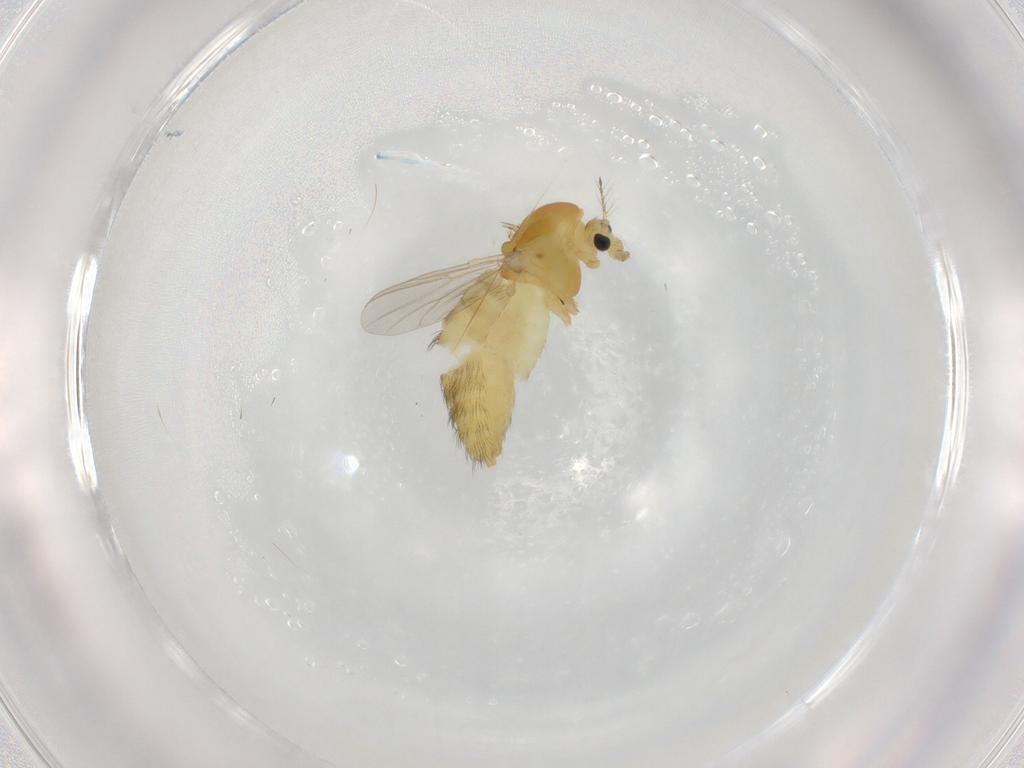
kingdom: Animalia
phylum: Arthropoda
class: Insecta
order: Diptera
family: Chironomidae
